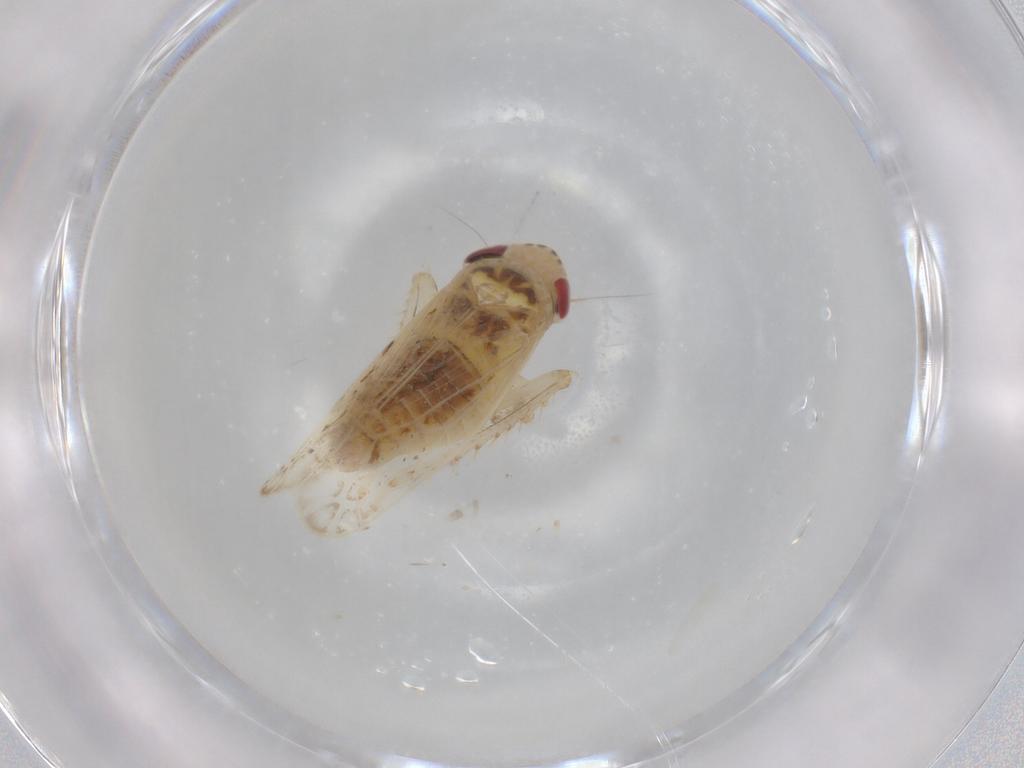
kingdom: Animalia
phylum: Arthropoda
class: Insecta
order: Hemiptera
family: Cicadellidae
